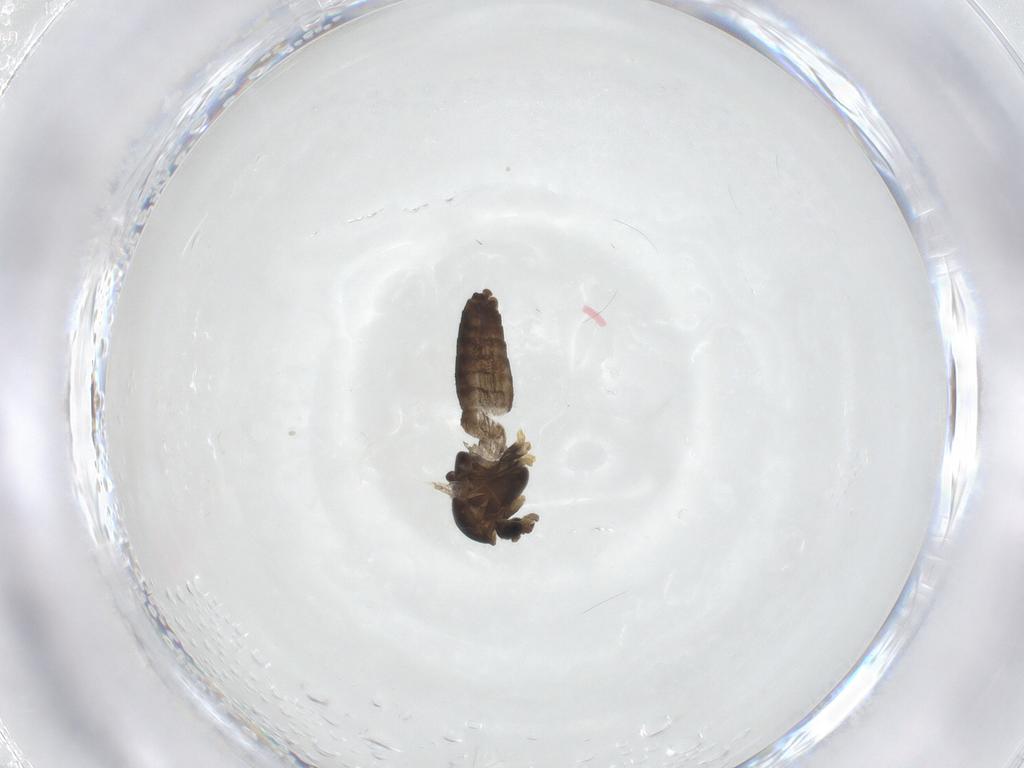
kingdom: Animalia
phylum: Arthropoda
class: Insecta
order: Diptera
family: Chironomidae
